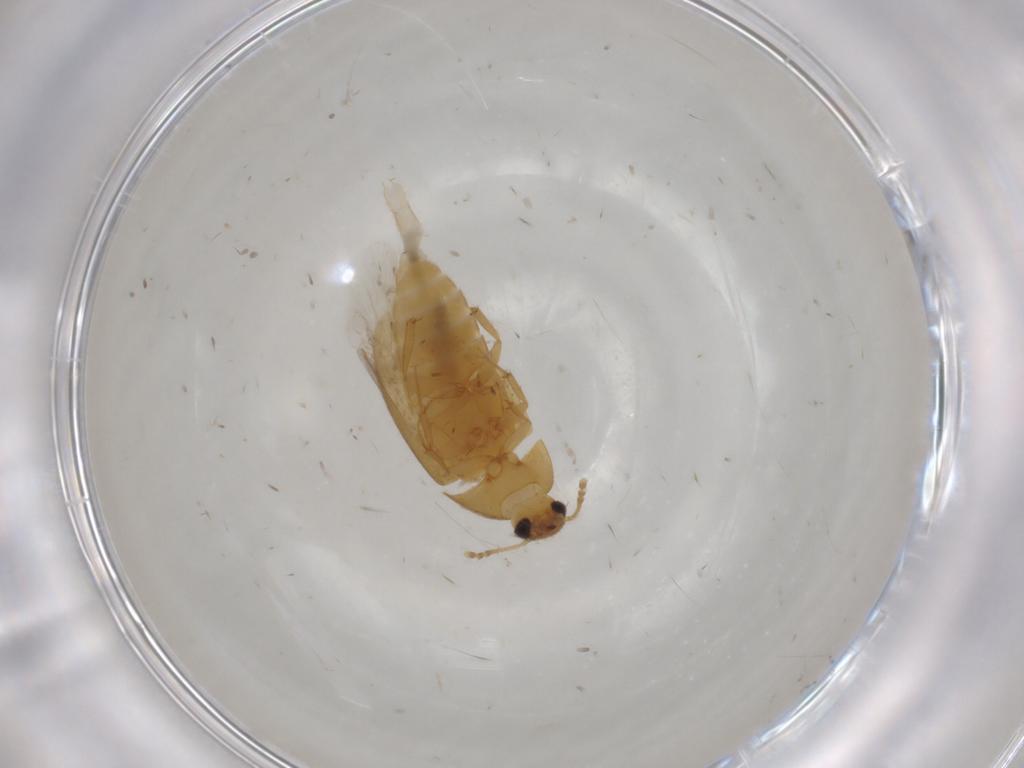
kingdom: Animalia
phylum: Arthropoda
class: Insecta
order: Coleoptera
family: Mycetophagidae
